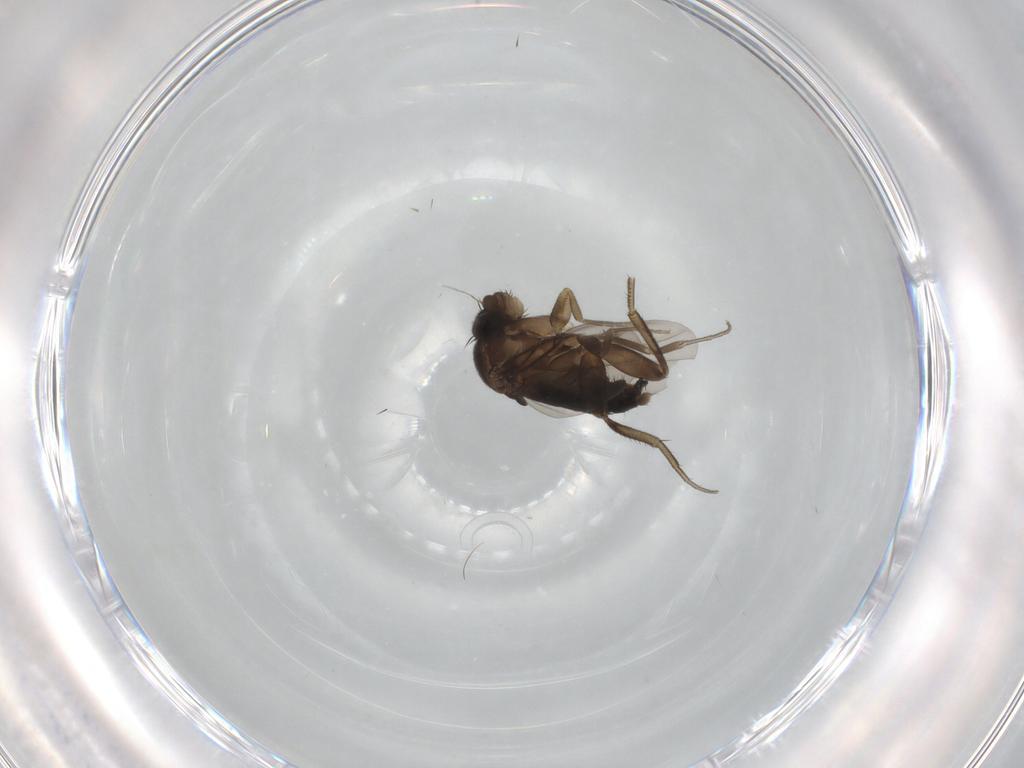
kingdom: Animalia
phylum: Arthropoda
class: Insecta
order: Diptera
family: Phoridae
